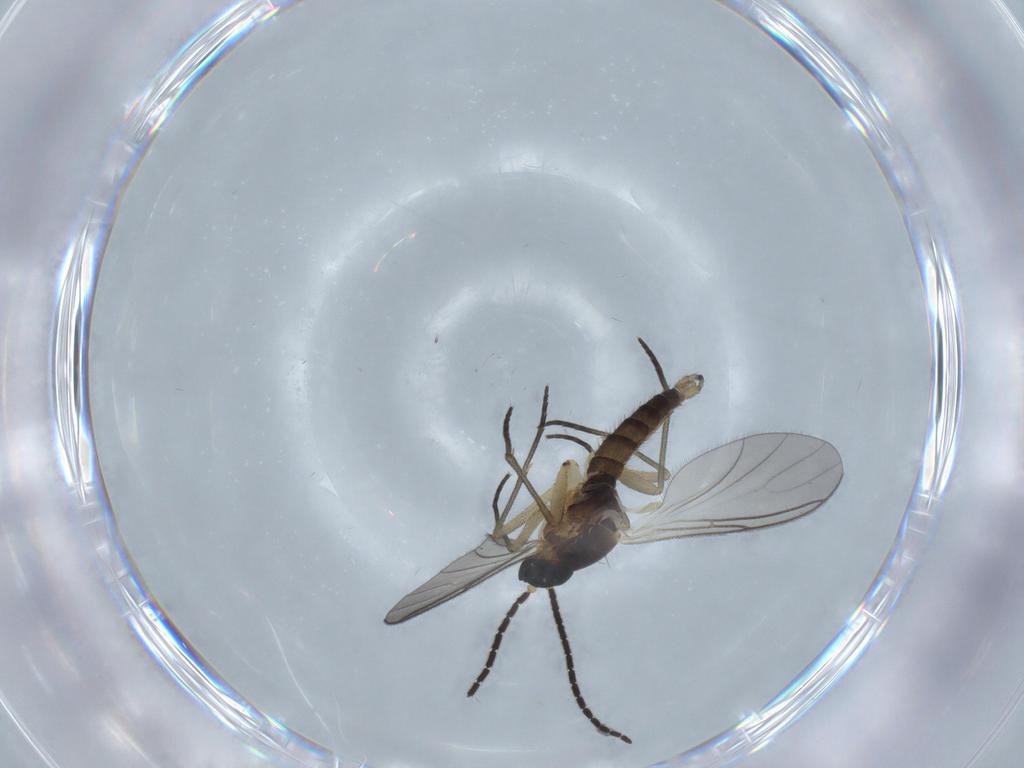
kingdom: Animalia
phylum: Arthropoda
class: Insecta
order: Diptera
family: Sciaridae
